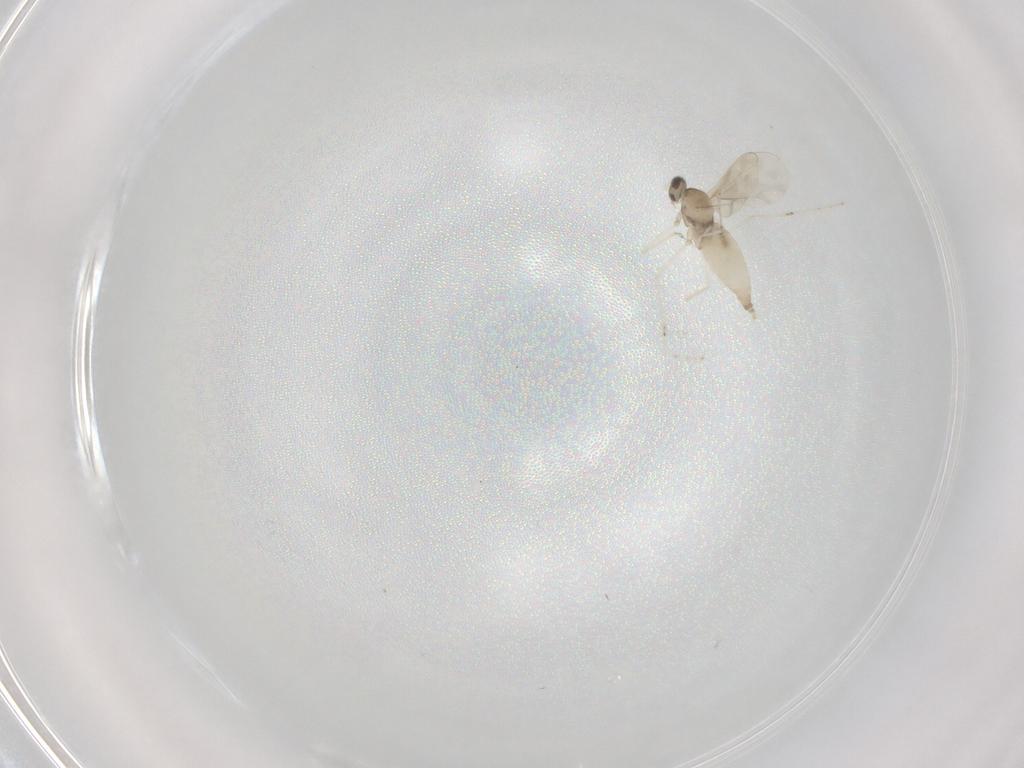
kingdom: Animalia
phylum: Arthropoda
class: Insecta
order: Diptera
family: Cecidomyiidae
